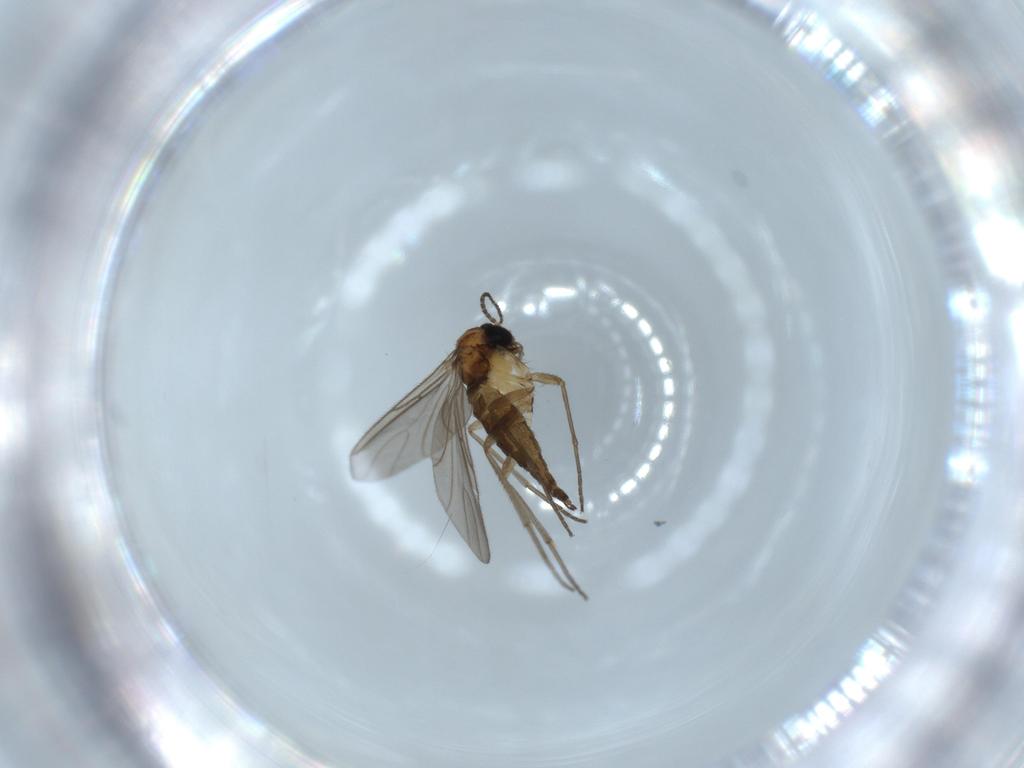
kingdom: Animalia
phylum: Arthropoda
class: Insecta
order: Diptera
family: Sciaridae
